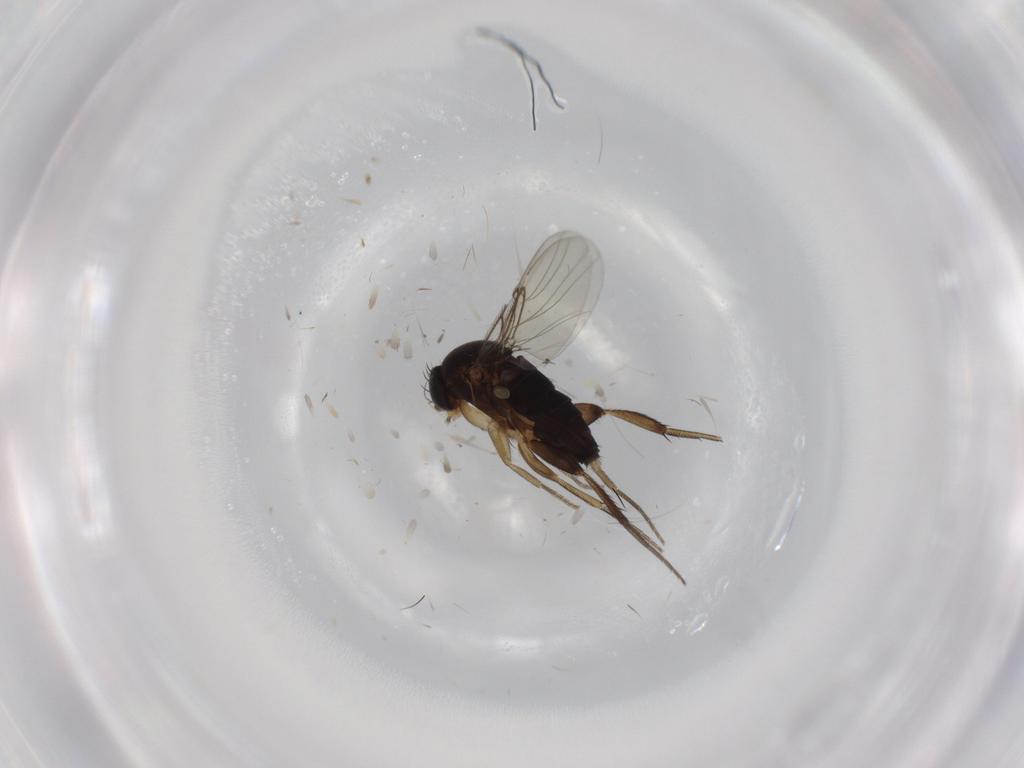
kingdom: Animalia
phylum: Arthropoda
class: Insecta
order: Diptera
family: Phoridae
